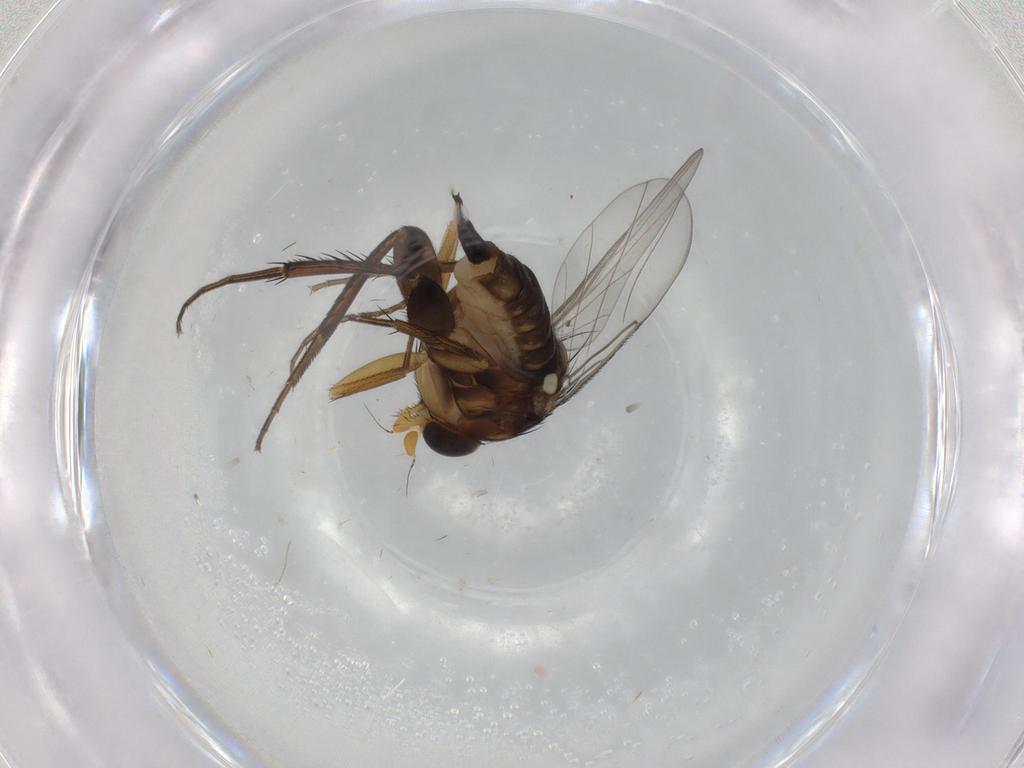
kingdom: Animalia
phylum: Arthropoda
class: Insecta
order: Diptera
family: Phoridae
